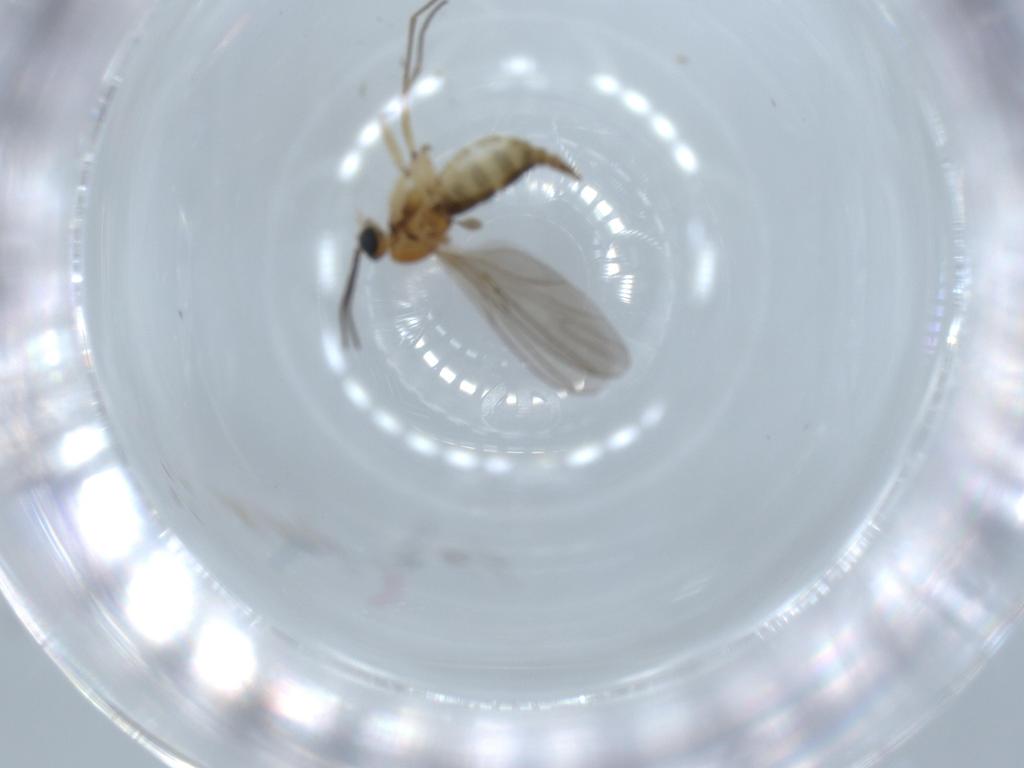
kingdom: Animalia
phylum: Arthropoda
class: Insecta
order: Diptera
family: Sciaridae
